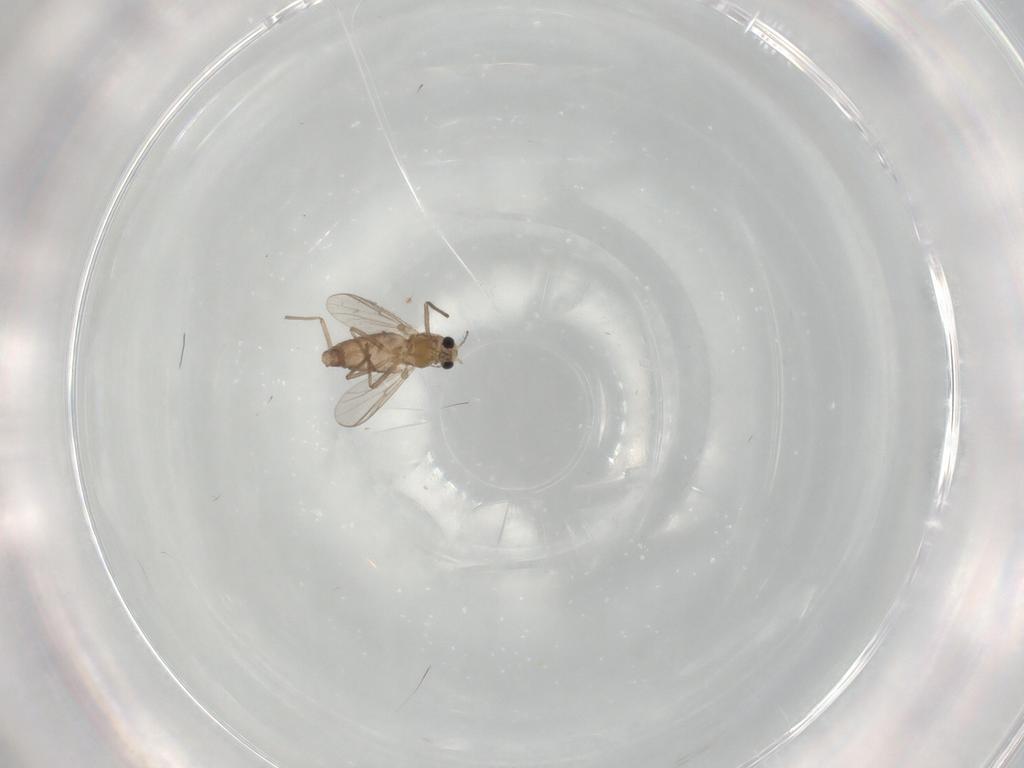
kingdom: Animalia
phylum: Arthropoda
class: Insecta
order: Diptera
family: Chironomidae
